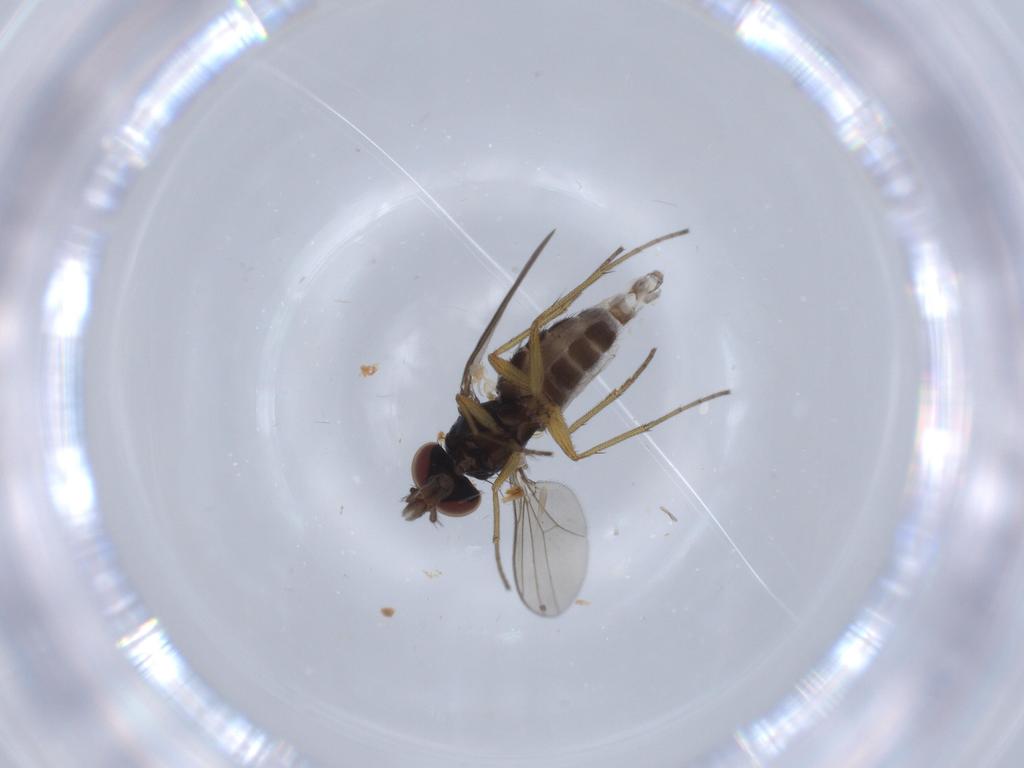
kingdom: Animalia
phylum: Arthropoda
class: Insecta
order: Diptera
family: Dolichopodidae
